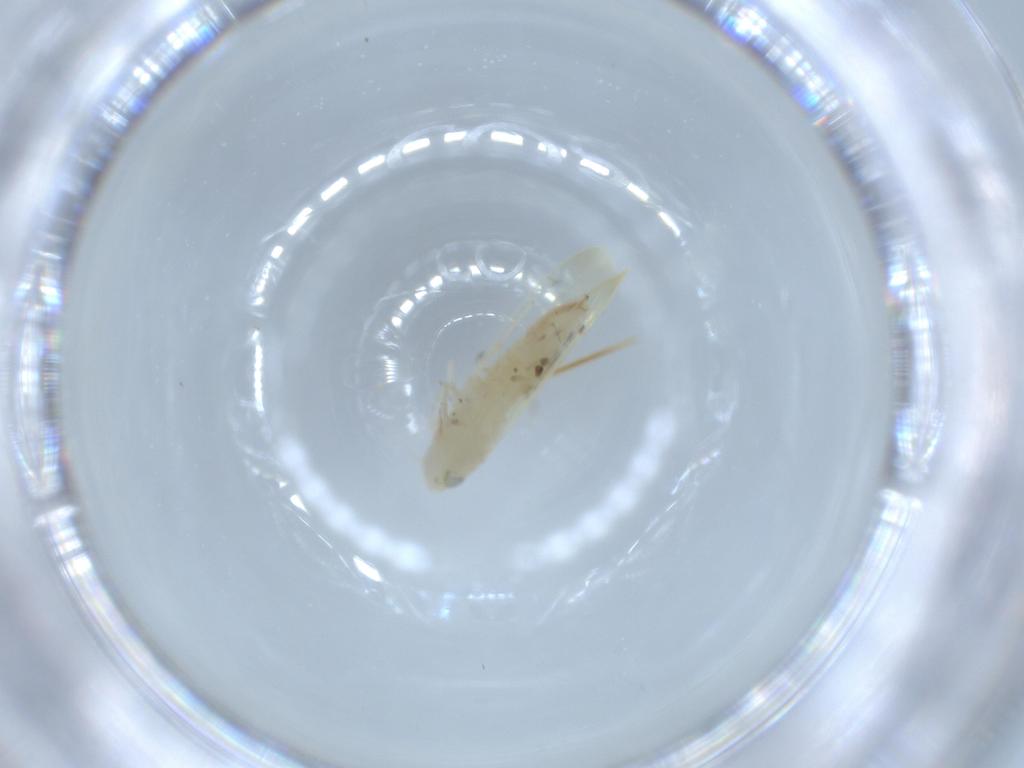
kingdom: Animalia
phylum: Arthropoda
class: Insecta
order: Hemiptera
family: Cicadellidae
